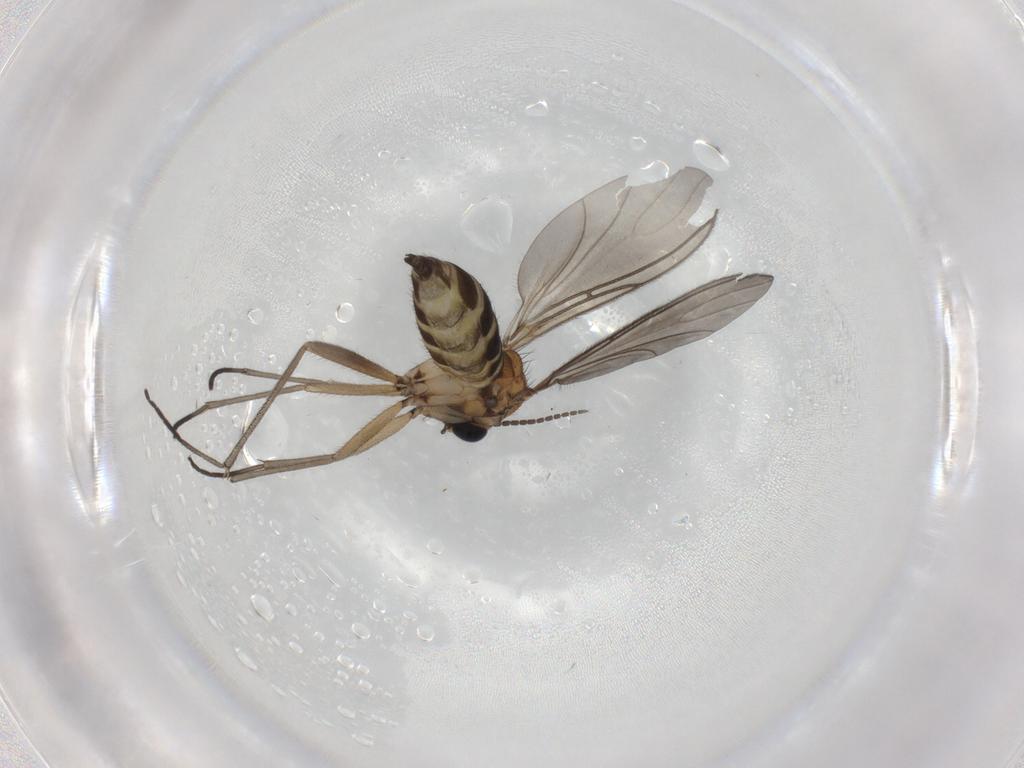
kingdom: Animalia
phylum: Arthropoda
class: Insecta
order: Diptera
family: Sciaridae
